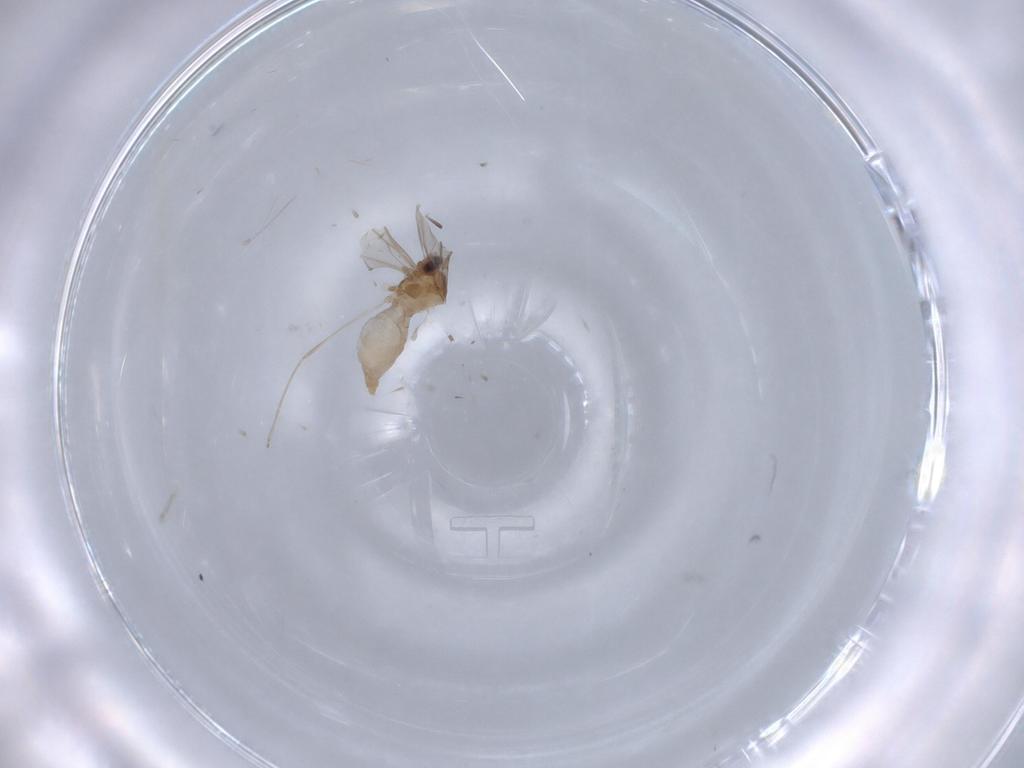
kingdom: Animalia
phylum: Arthropoda
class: Insecta
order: Diptera
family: Cecidomyiidae
